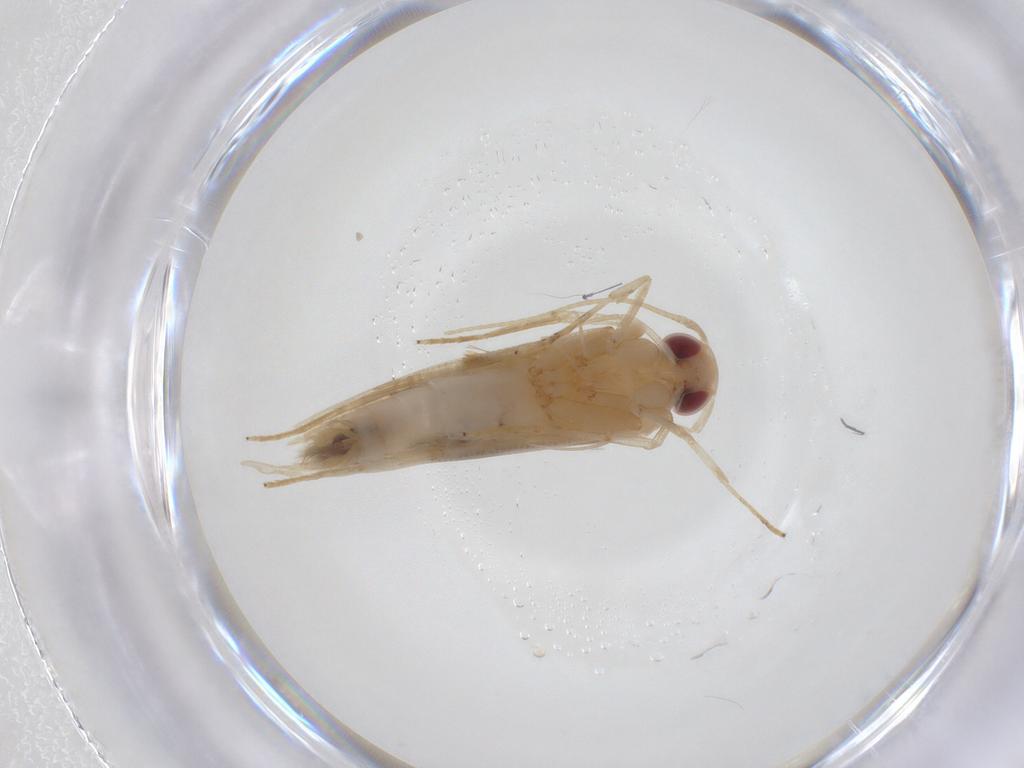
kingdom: Animalia
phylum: Arthropoda
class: Insecta
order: Lepidoptera
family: Cosmopterigidae
